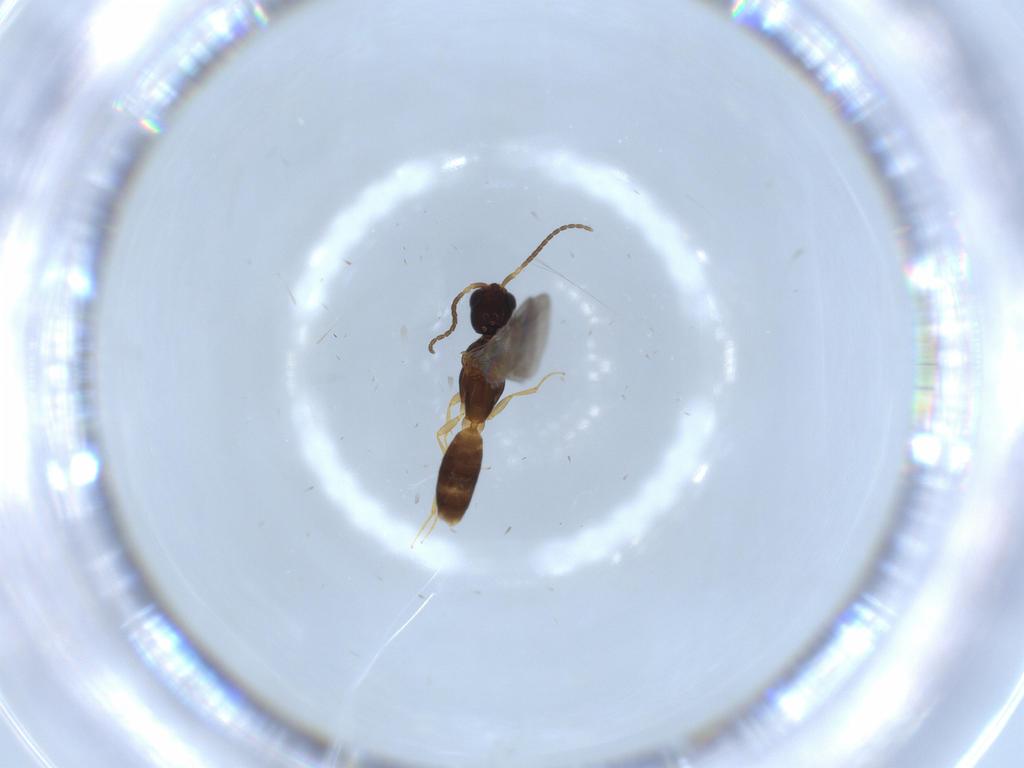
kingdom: Animalia
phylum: Arthropoda
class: Insecta
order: Hymenoptera
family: Bethylidae
